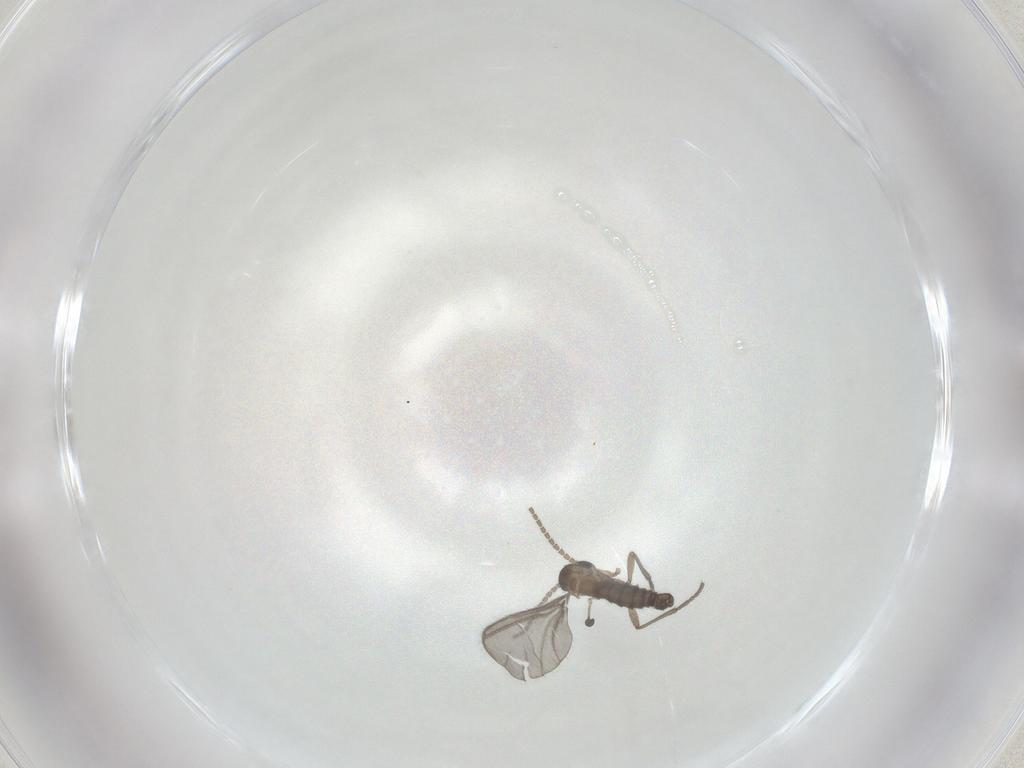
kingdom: Animalia
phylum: Arthropoda
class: Insecta
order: Diptera
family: Sciaridae
